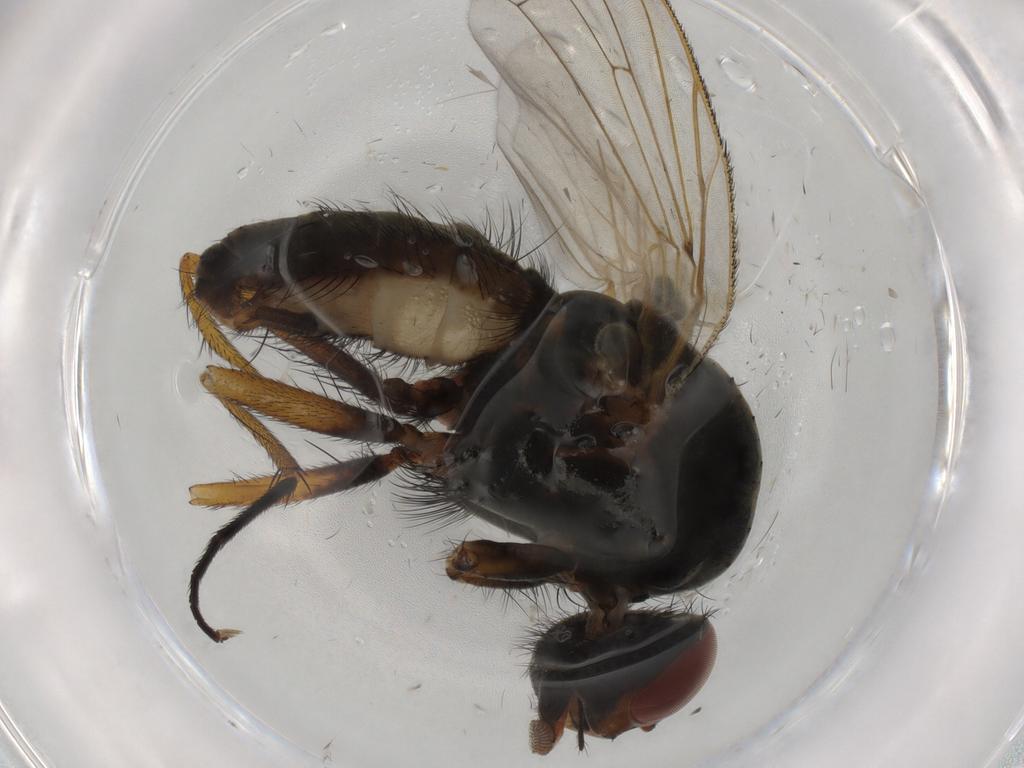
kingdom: Animalia
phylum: Arthropoda
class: Insecta
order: Diptera
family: Anthomyiidae
